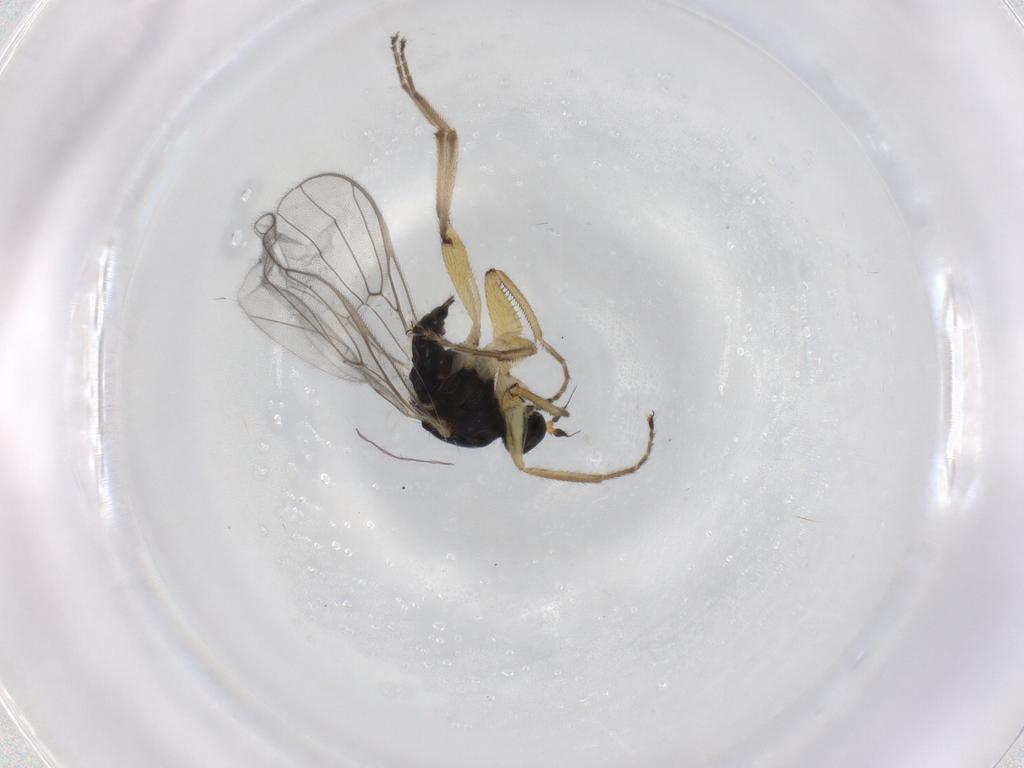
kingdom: Animalia
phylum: Arthropoda
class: Insecta
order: Diptera
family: Hybotidae
